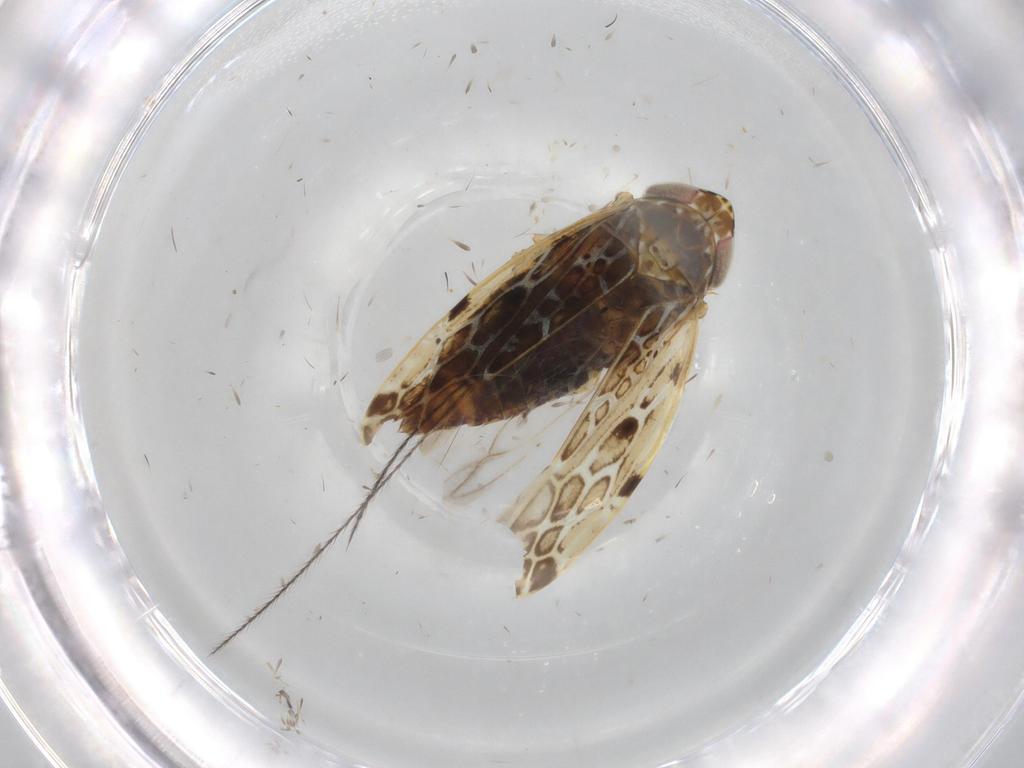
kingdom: Animalia
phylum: Arthropoda
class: Insecta
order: Hemiptera
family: Cicadellidae
